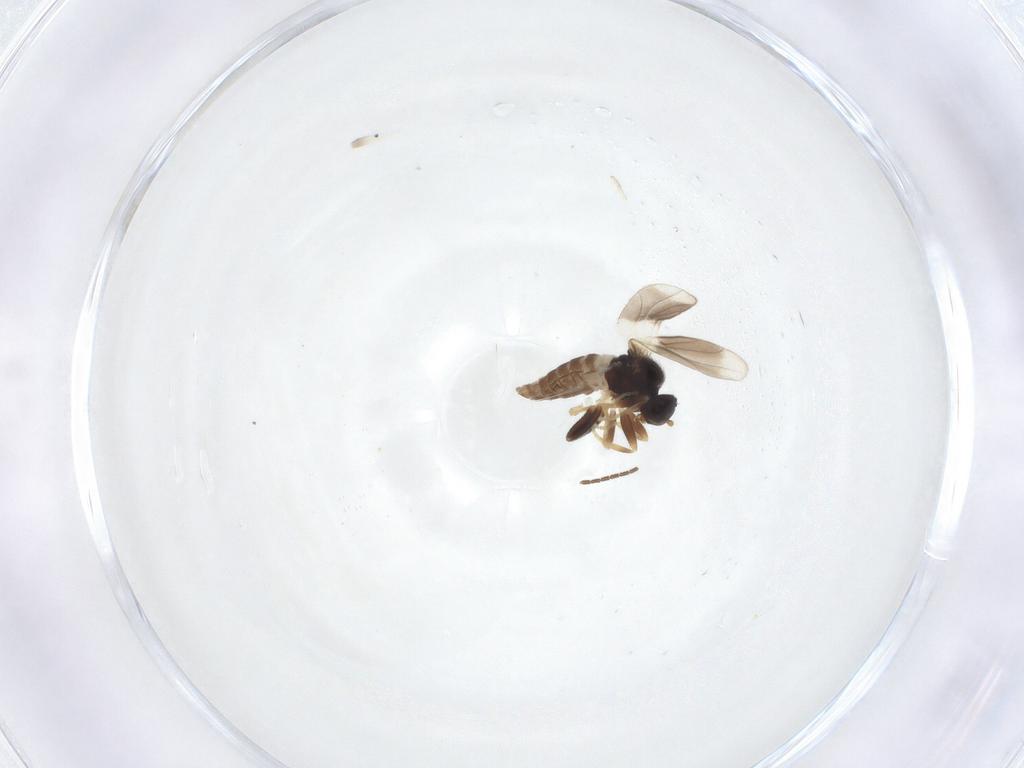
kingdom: Animalia
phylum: Arthropoda
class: Insecta
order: Diptera
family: Hybotidae
